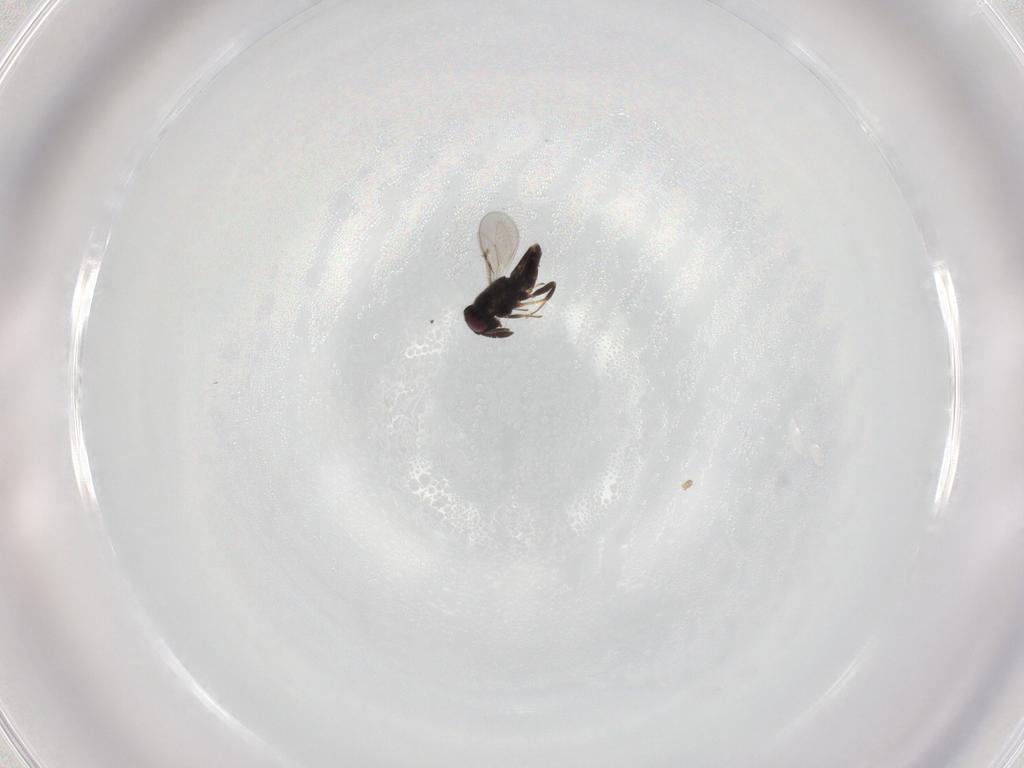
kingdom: Animalia
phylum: Arthropoda
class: Insecta
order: Hymenoptera
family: Encyrtidae
